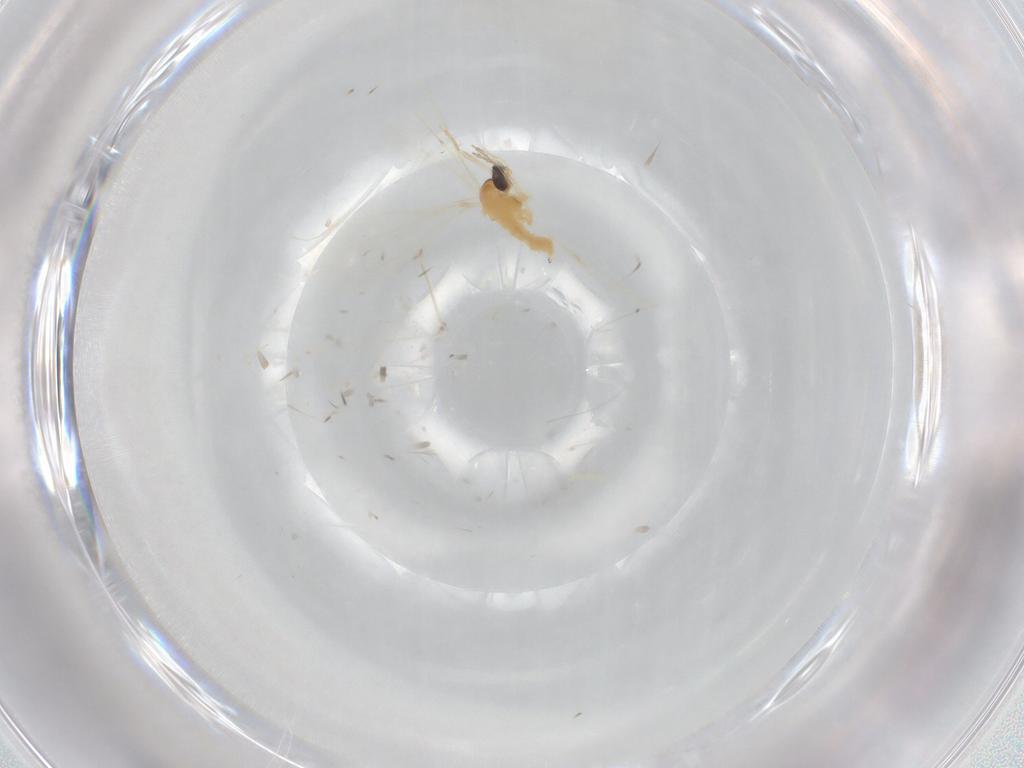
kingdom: Animalia
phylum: Arthropoda
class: Insecta
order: Diptera
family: Cecidomyiidae
